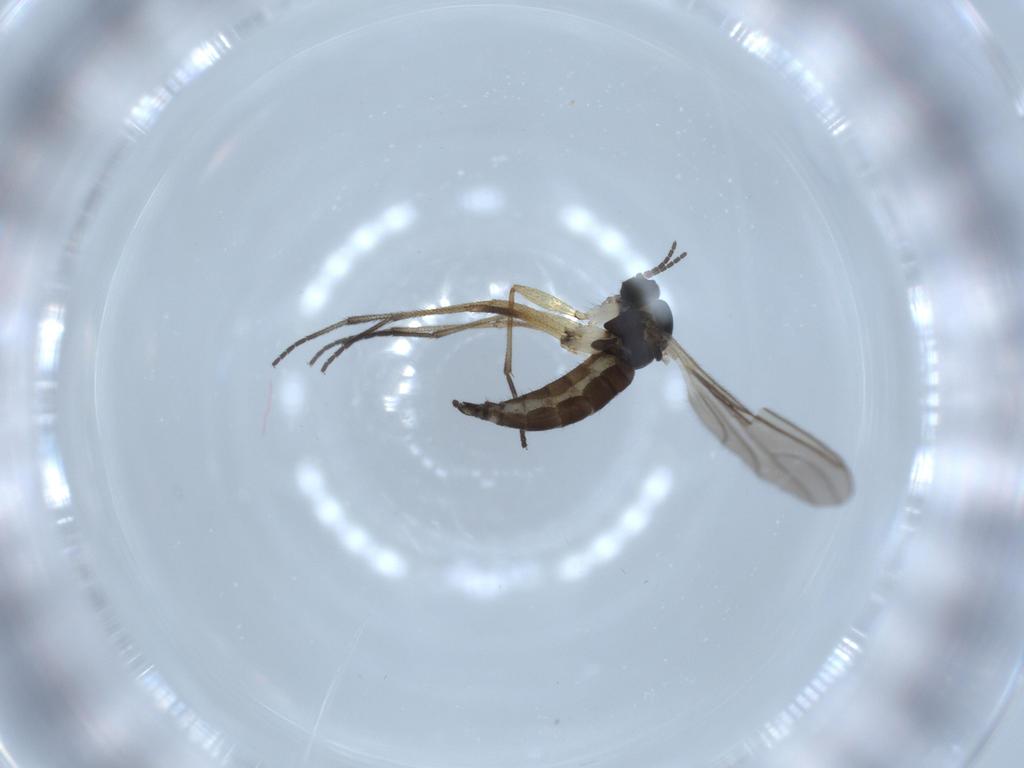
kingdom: Animalia
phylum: Arthropoda
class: Insecta
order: Diptera
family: Sciaridae
